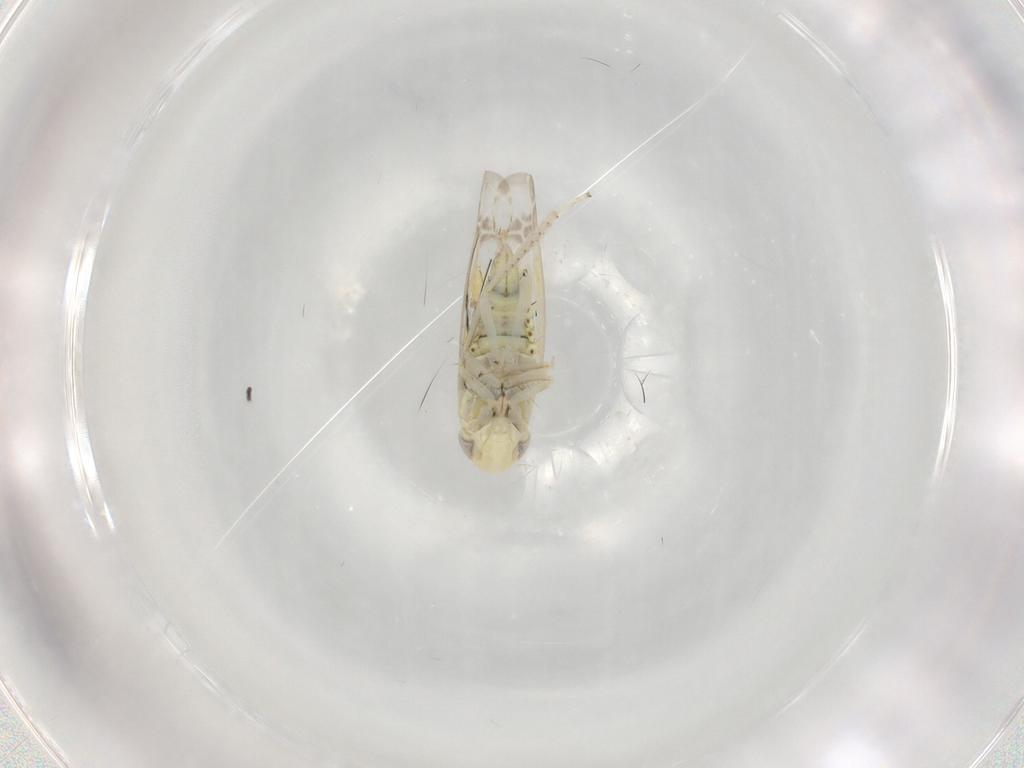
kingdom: Animalia
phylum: Arthropoda
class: Insecta
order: Hemiptera
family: Cicadellidae
